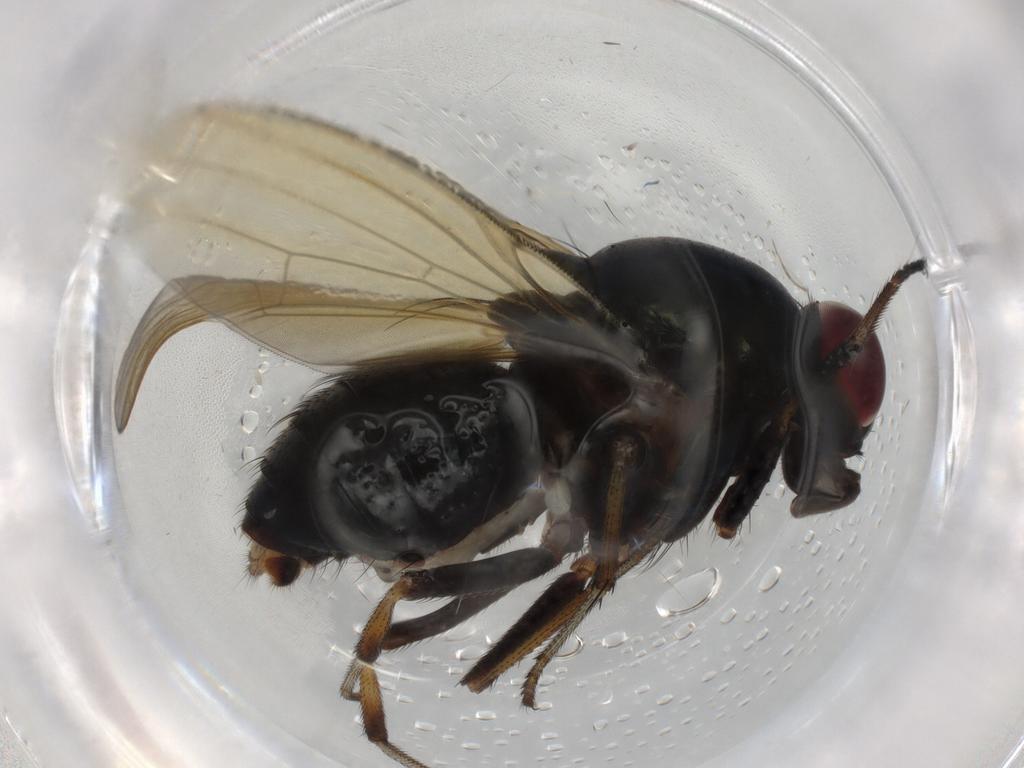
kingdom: Animalia
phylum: Arthropoda
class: Insecta
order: Diptera
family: Lauxaniidae
